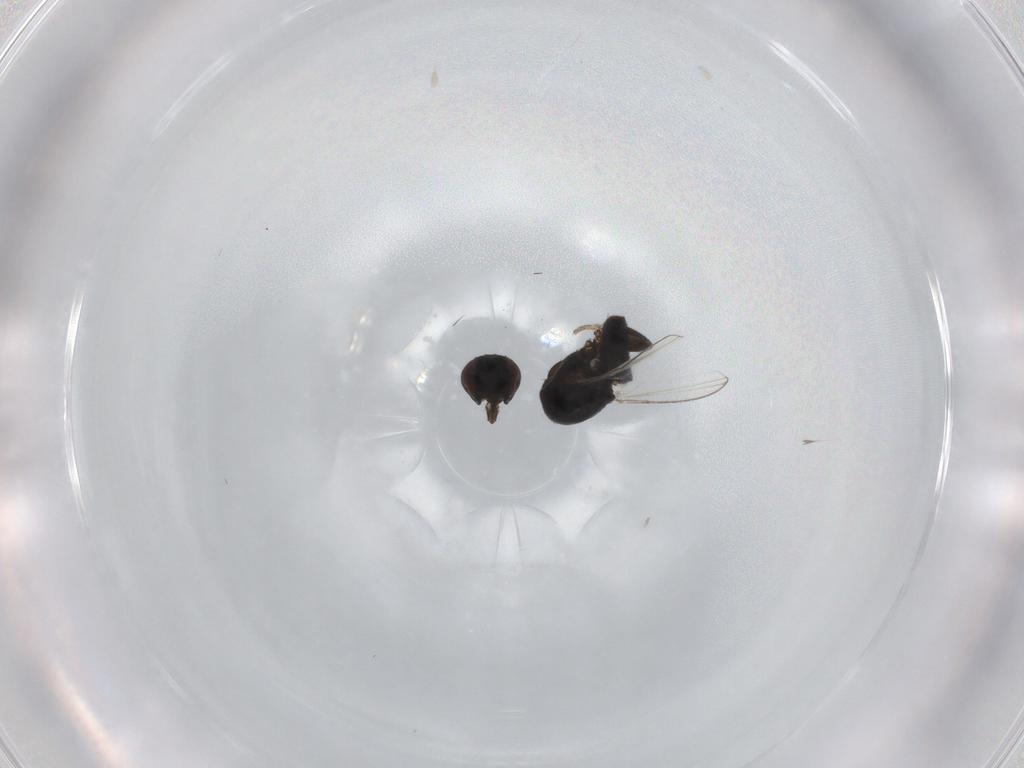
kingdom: Animalia
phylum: Arthropoda
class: Insecta
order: Diptera
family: Milichiidae
